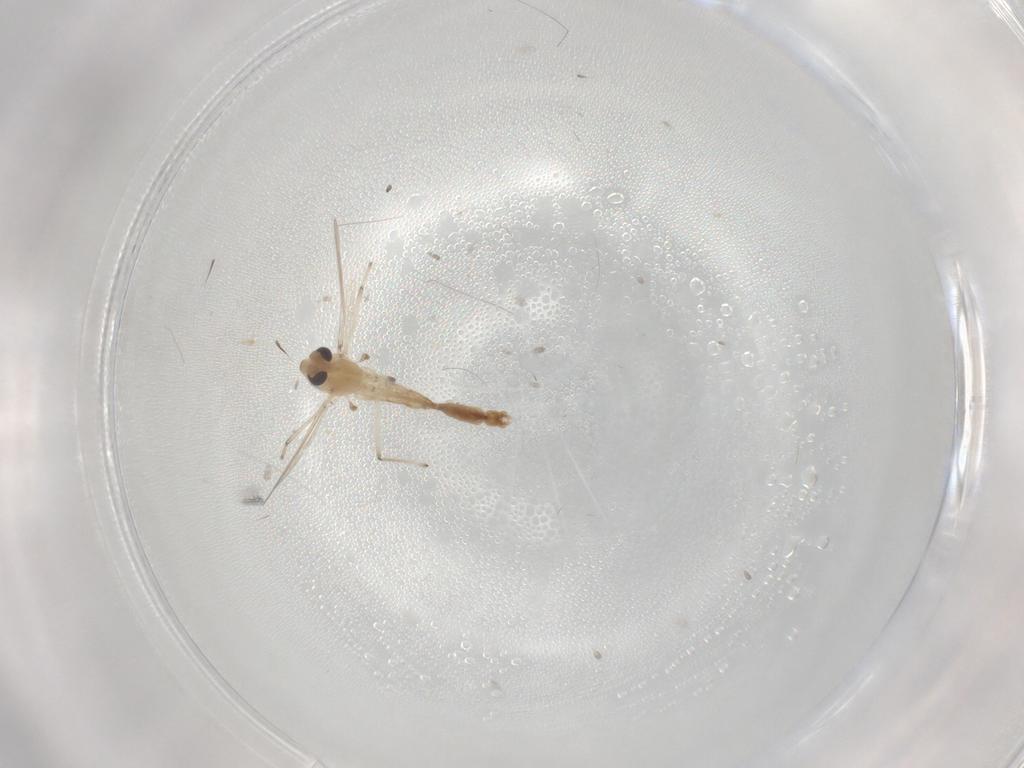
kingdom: Animalia
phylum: Arthropoda
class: Insecta
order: Diptera
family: Chironomidae
